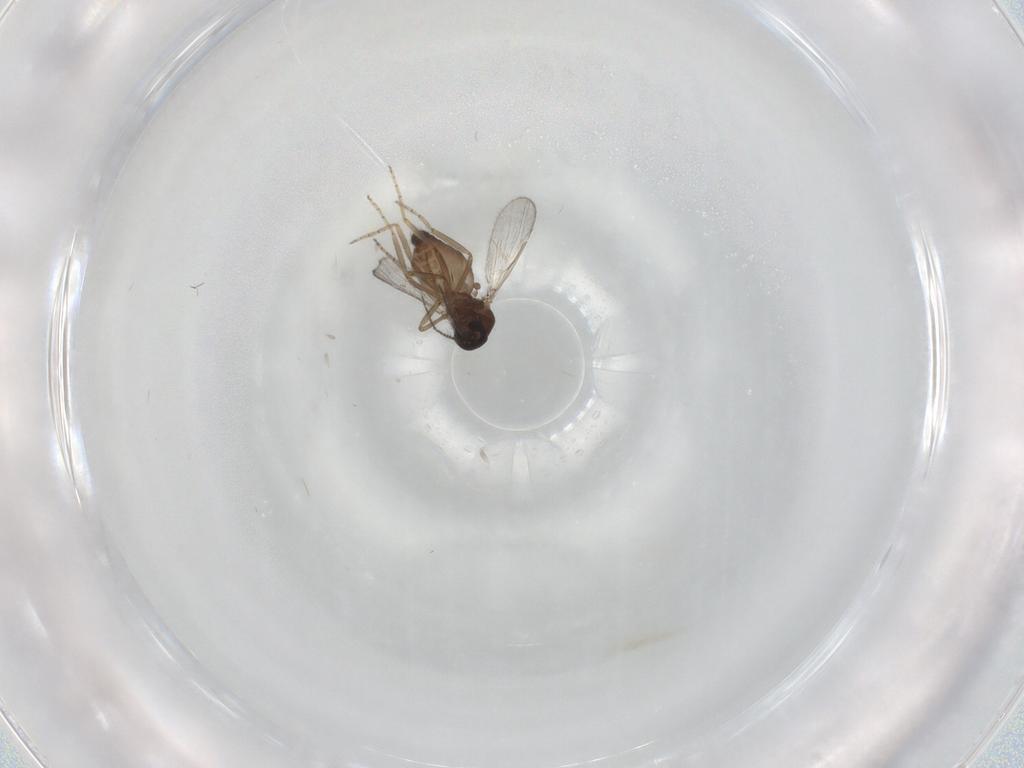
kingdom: Animalia
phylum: Arthropoda
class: Insecta
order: Diptera
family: Ceratopogonidae
